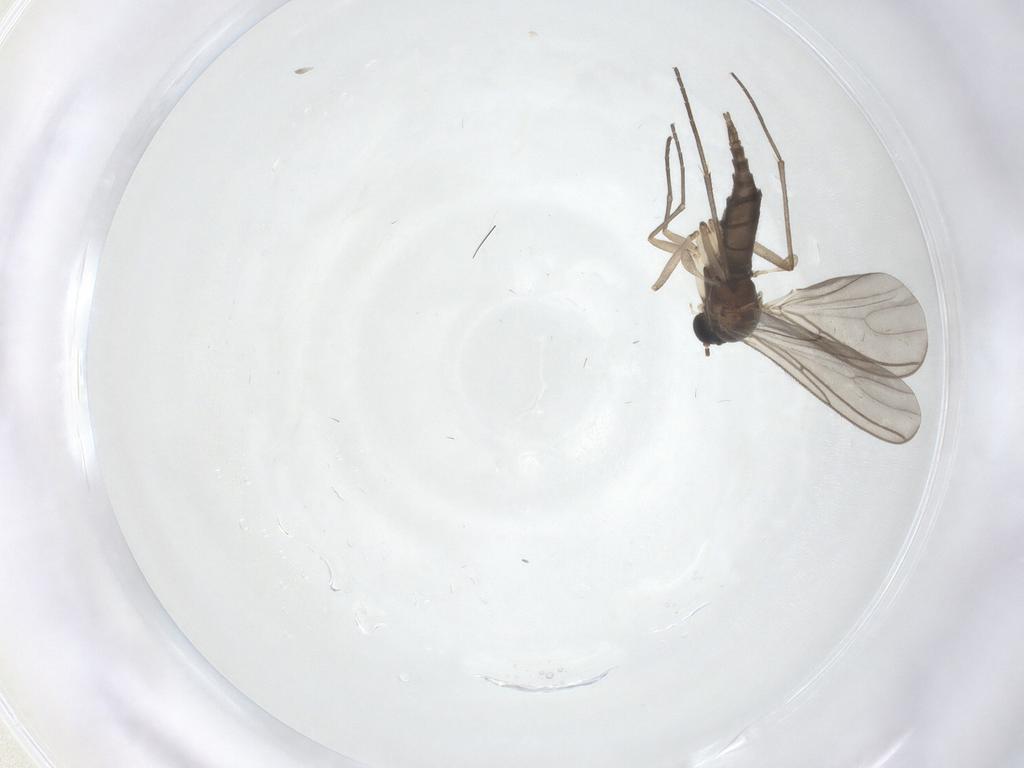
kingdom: Animalia
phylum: Arthropoda
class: Insecta
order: Diptera
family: Sciaridae
